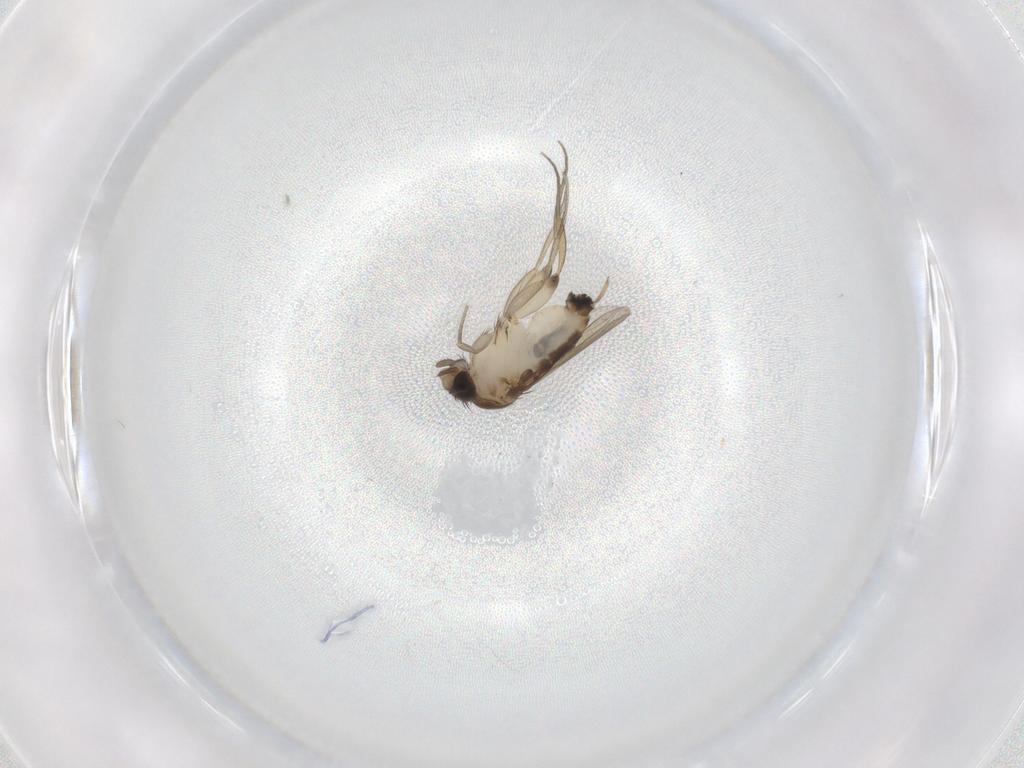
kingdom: Animalia
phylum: Arthropoda
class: Insecta
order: Diptera
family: Phoridae
